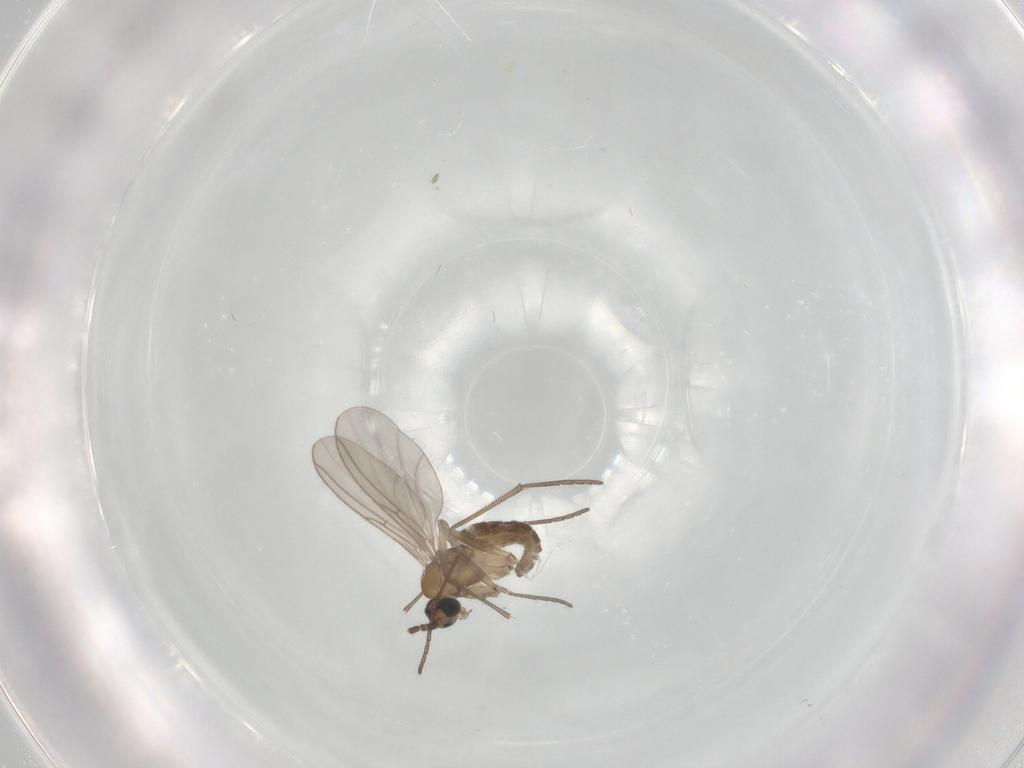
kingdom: Animalia
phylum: Arthropoda
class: Insecta
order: Diptera
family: Sciaridae
